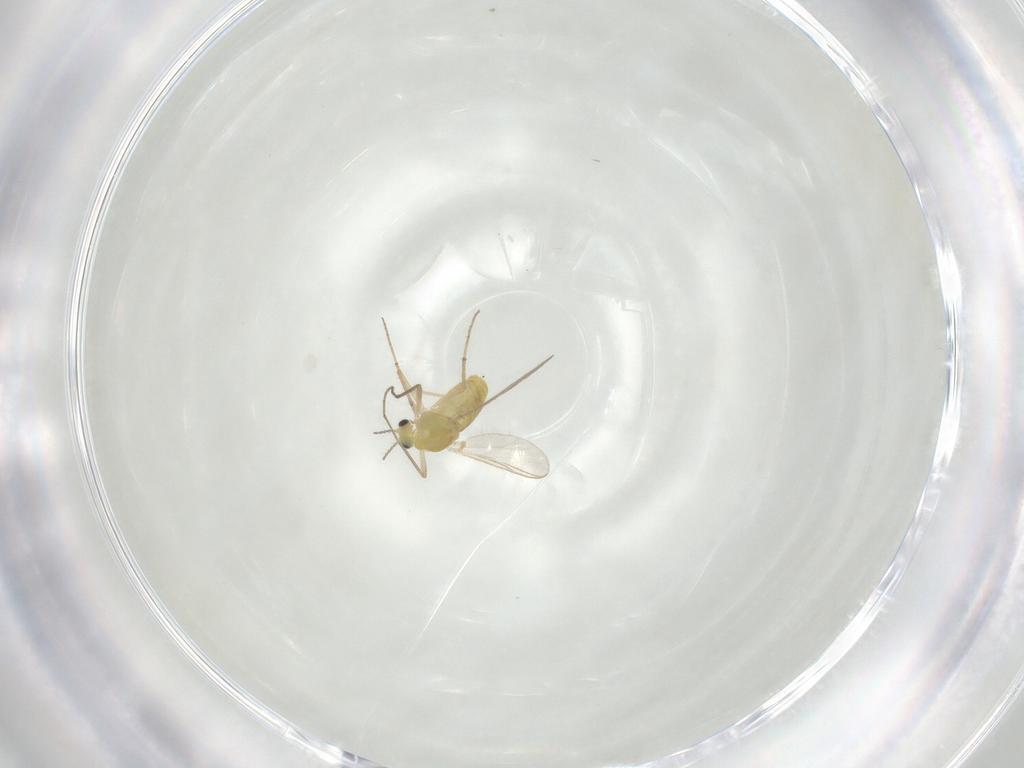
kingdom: Animalia
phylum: Arthropoda
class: Insecta
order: Diptera
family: Chironomidae
